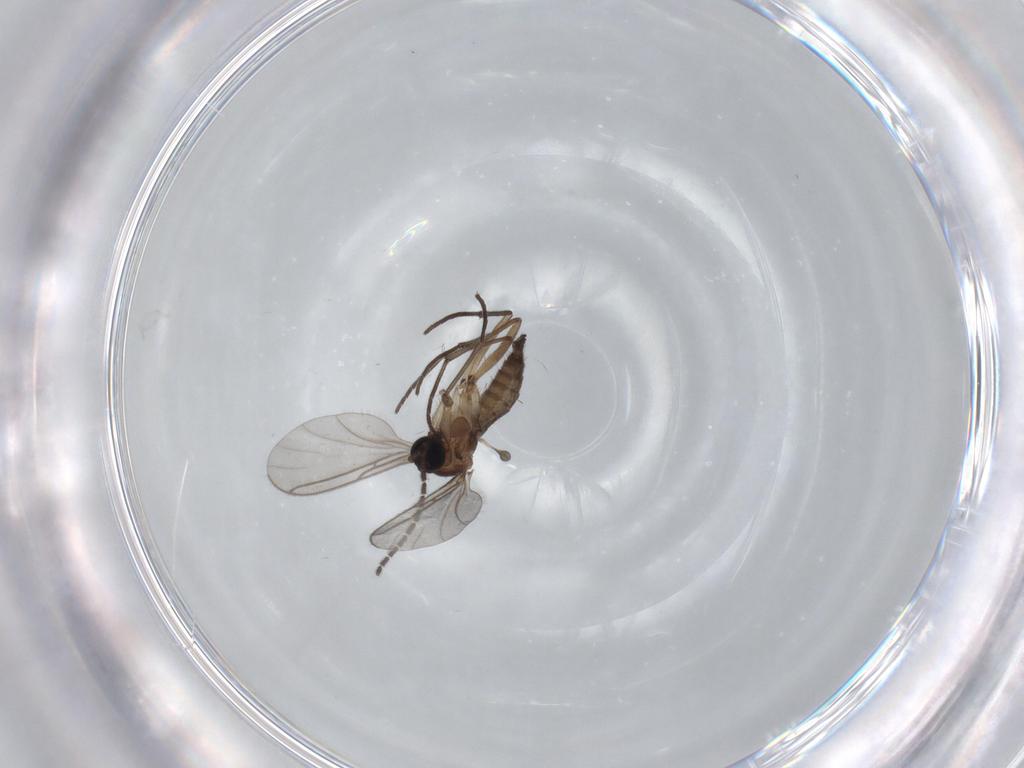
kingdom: Animalia
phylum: Arthropoda
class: Insecta
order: Diptera
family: Sciaridae
